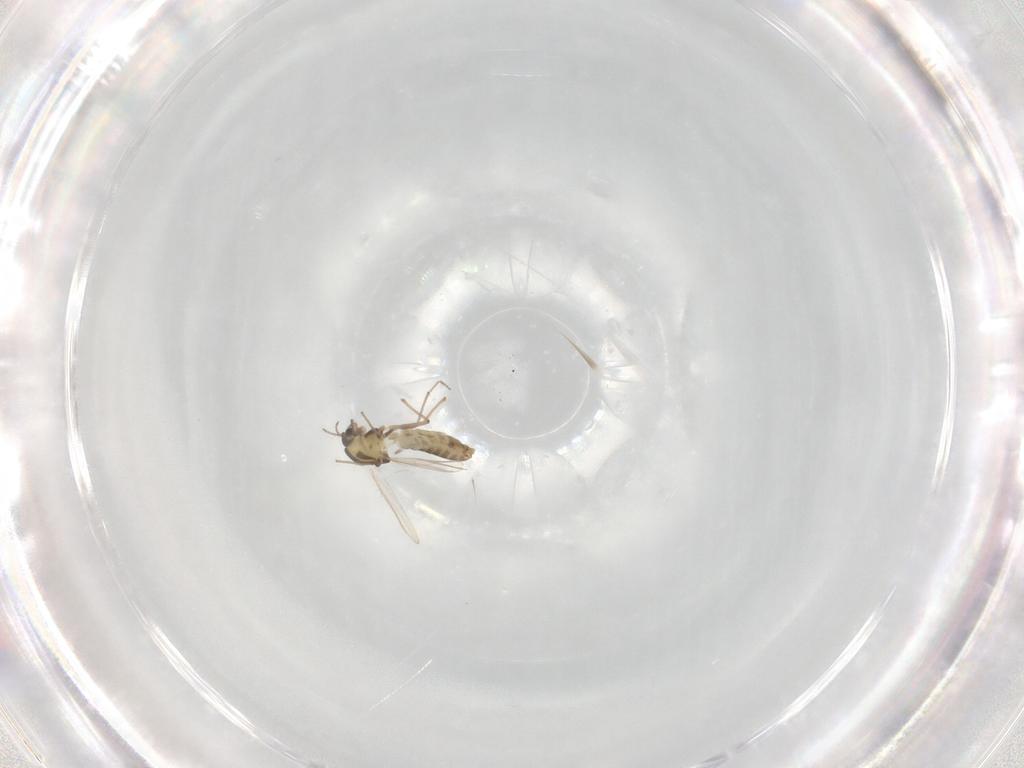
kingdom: Animalia
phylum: Arthropoda
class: Insecta
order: Diptera
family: Chironomidae
